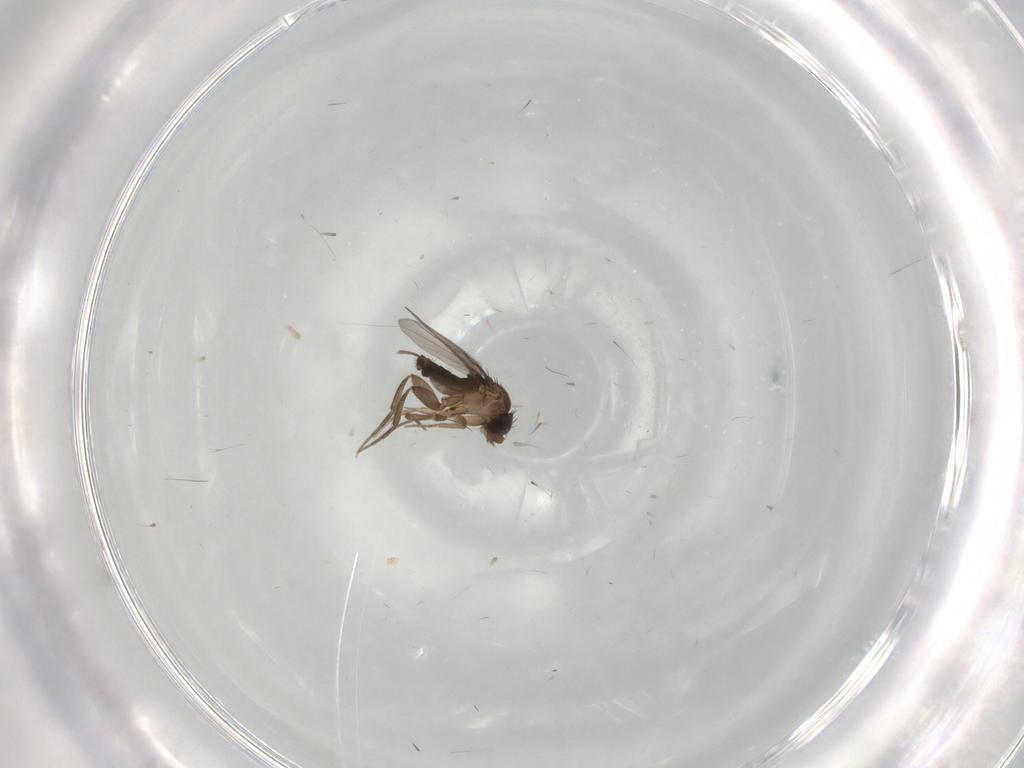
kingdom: Animalia
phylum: Arthropoda
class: Insecta
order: Diptera
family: Phoridae
